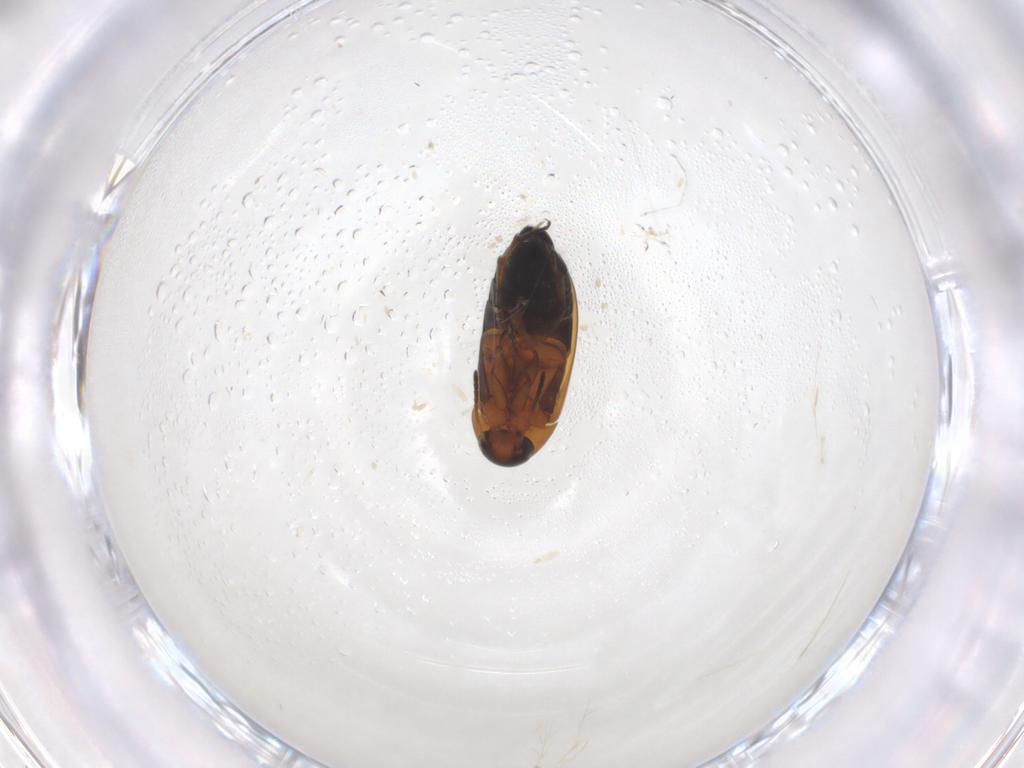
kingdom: Animalia
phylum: Arthropoda
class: Insecta
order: Coleoptera
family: Scraptiidae
